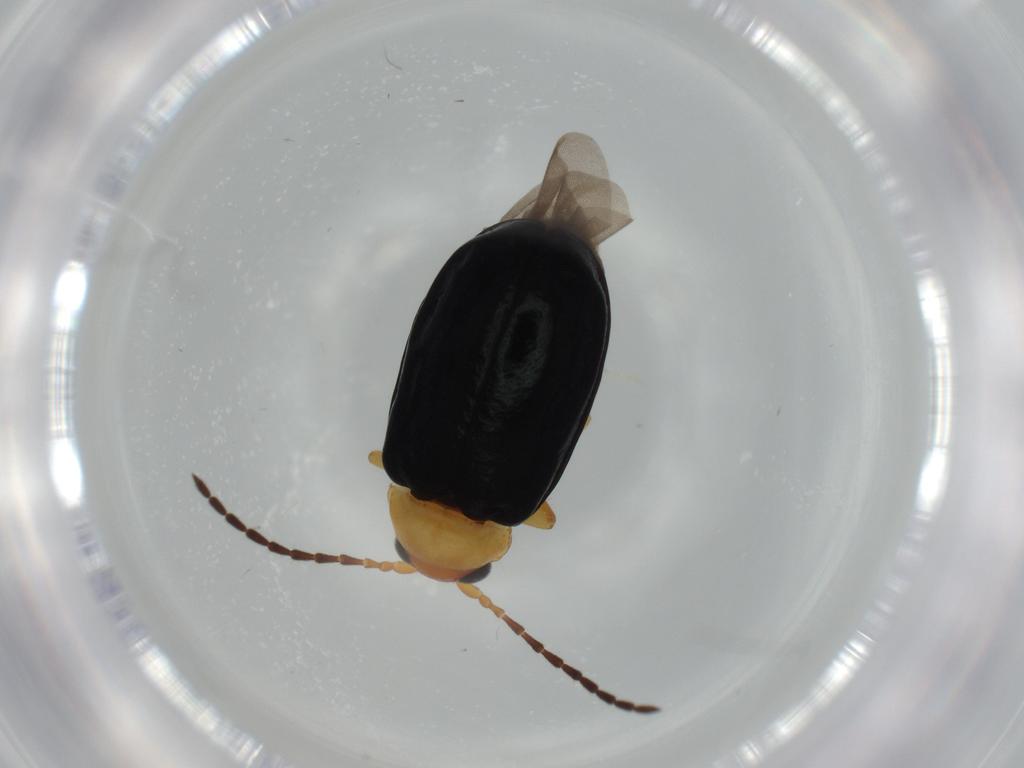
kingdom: Animalia
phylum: Arthropoda
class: Insecta
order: Coleoptera
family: Chrysomelidae
